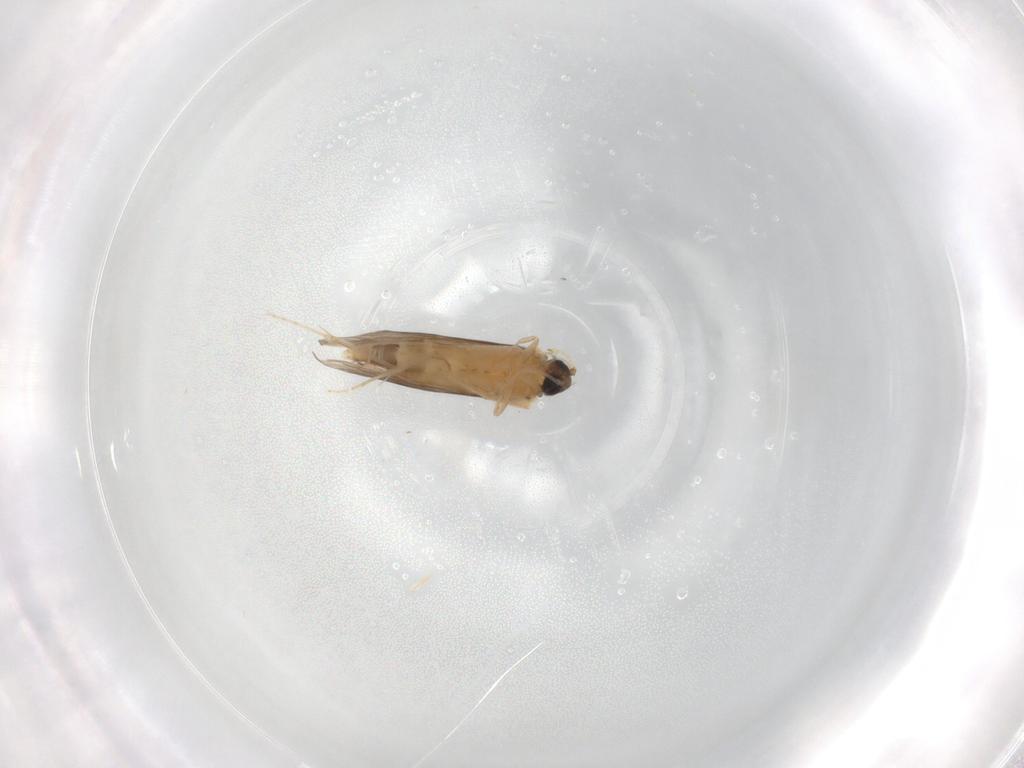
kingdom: Animalia
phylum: Arthropoda
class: Insecta
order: Trichoptera
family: Hydroptilidae
